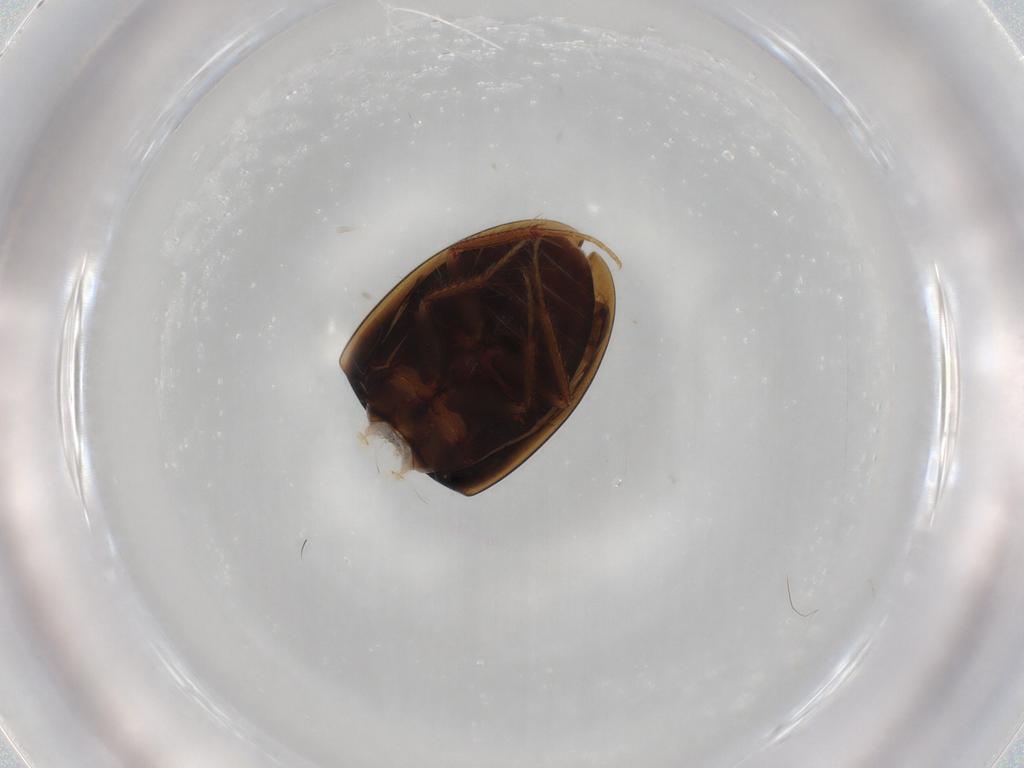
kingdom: Animalia
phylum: Arthropoda
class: Insecta
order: Coleoptera
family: Hydrophilidae
